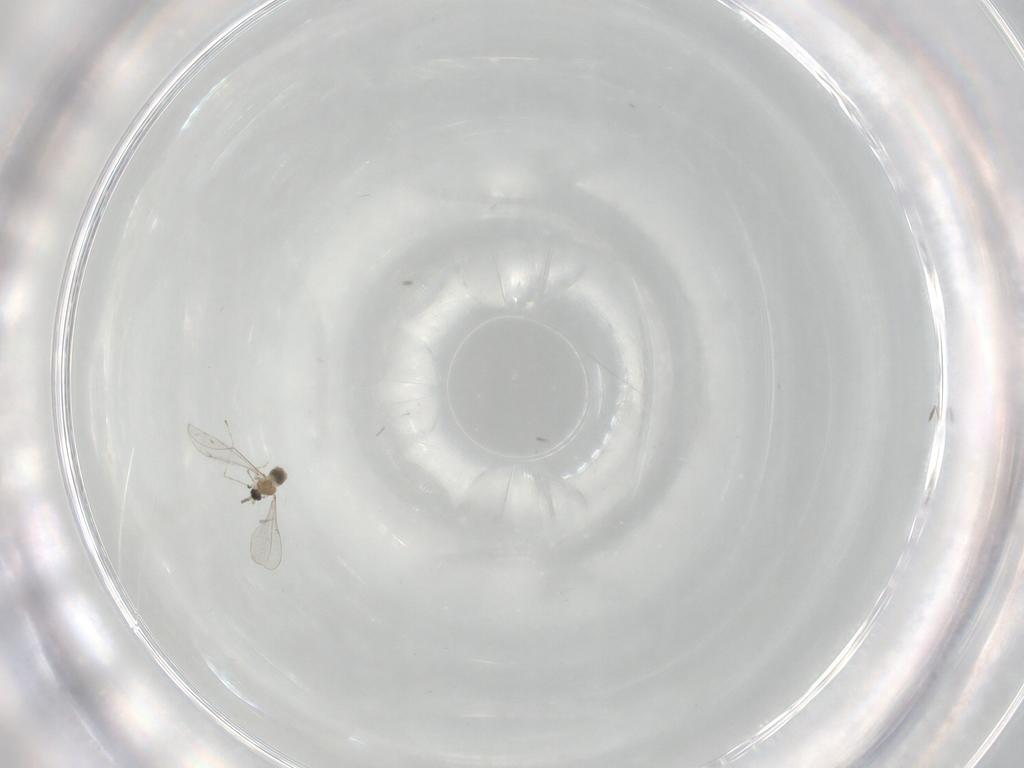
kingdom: Animalia
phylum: Arthropoda
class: Insecta
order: Diptera
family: Cecidomyiidae
